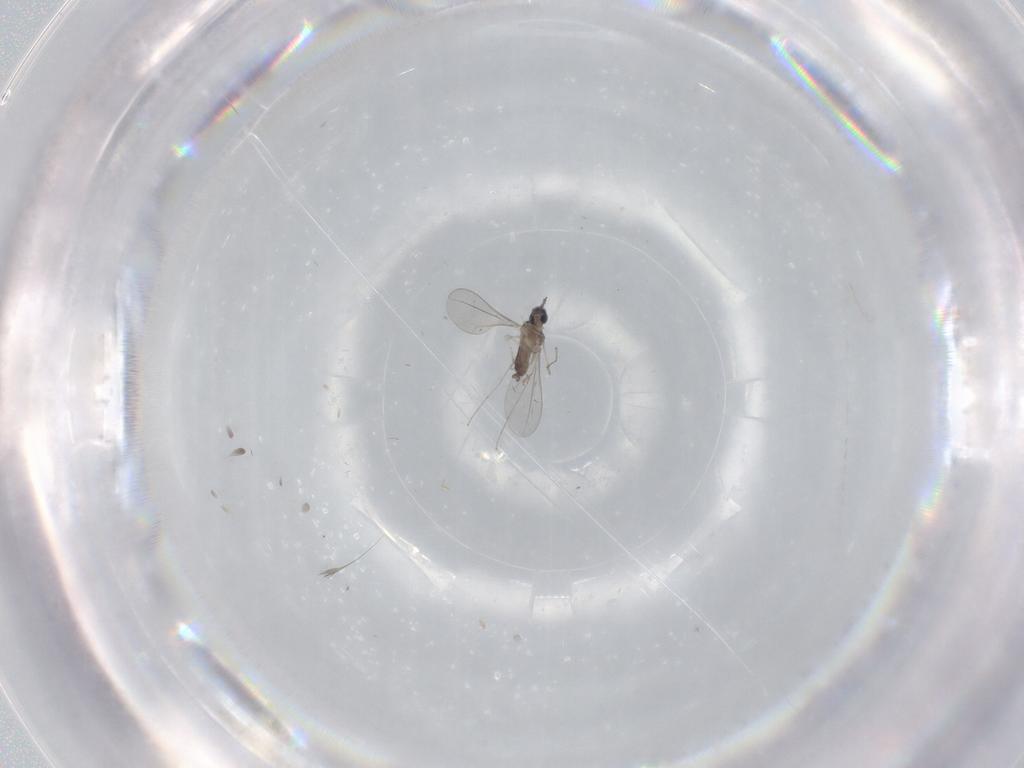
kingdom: Animalia
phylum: Arthropoda
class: Insecta
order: Diptera
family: Cecidomyiidae
